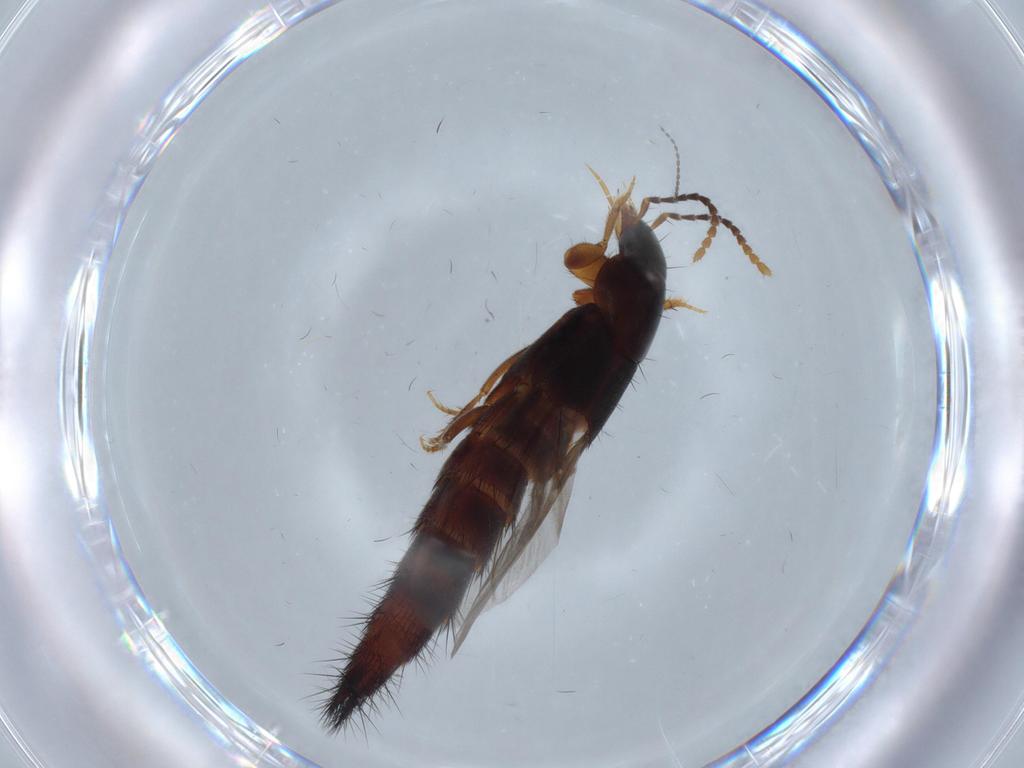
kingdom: Animalia
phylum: Arthropoda
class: Insecta
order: Coleoptera
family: Staphylinidae
